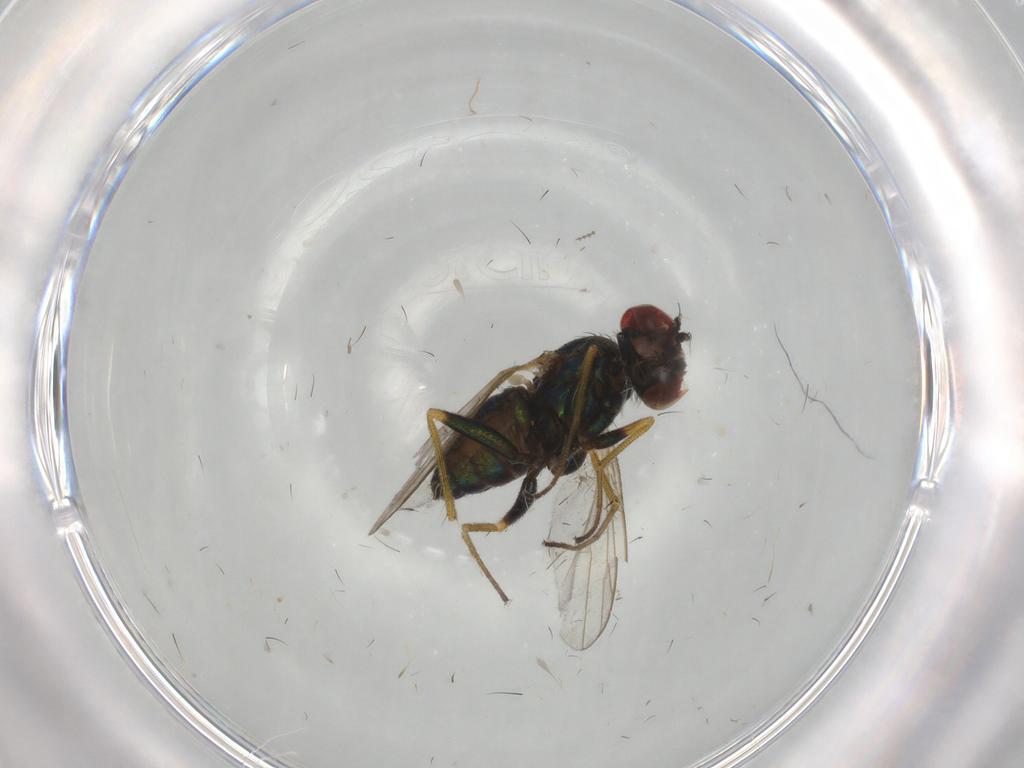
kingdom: Animalia
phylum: Arthropoda
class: Insecta
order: Diptera
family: Dolichopodidae
